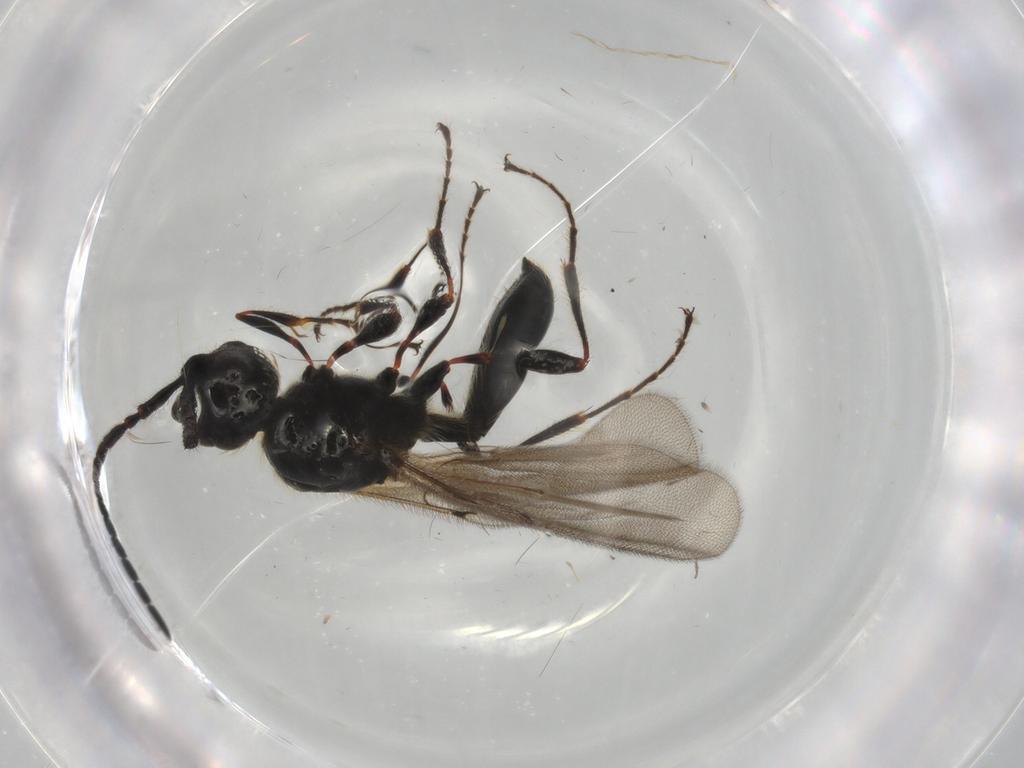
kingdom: Animalia
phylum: Arthropoda
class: Insecta
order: Hymenoptera
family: Diapriidae
